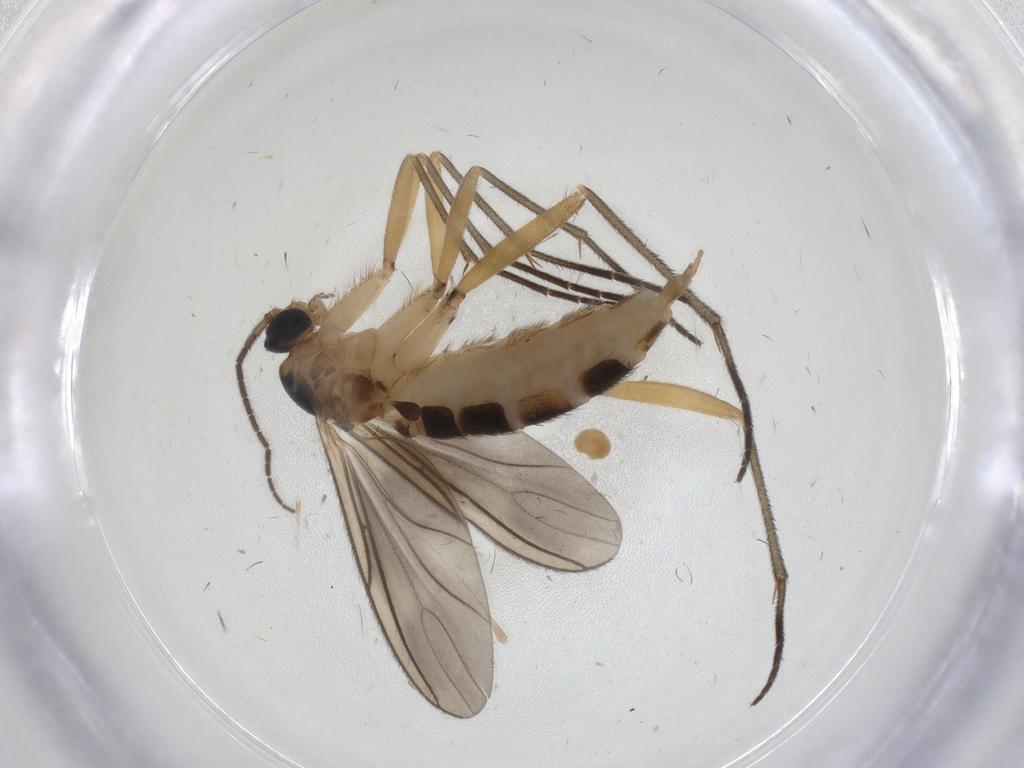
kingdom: Animalia
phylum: Arthropoda
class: Insecta
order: Diptera
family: Sciaridae
